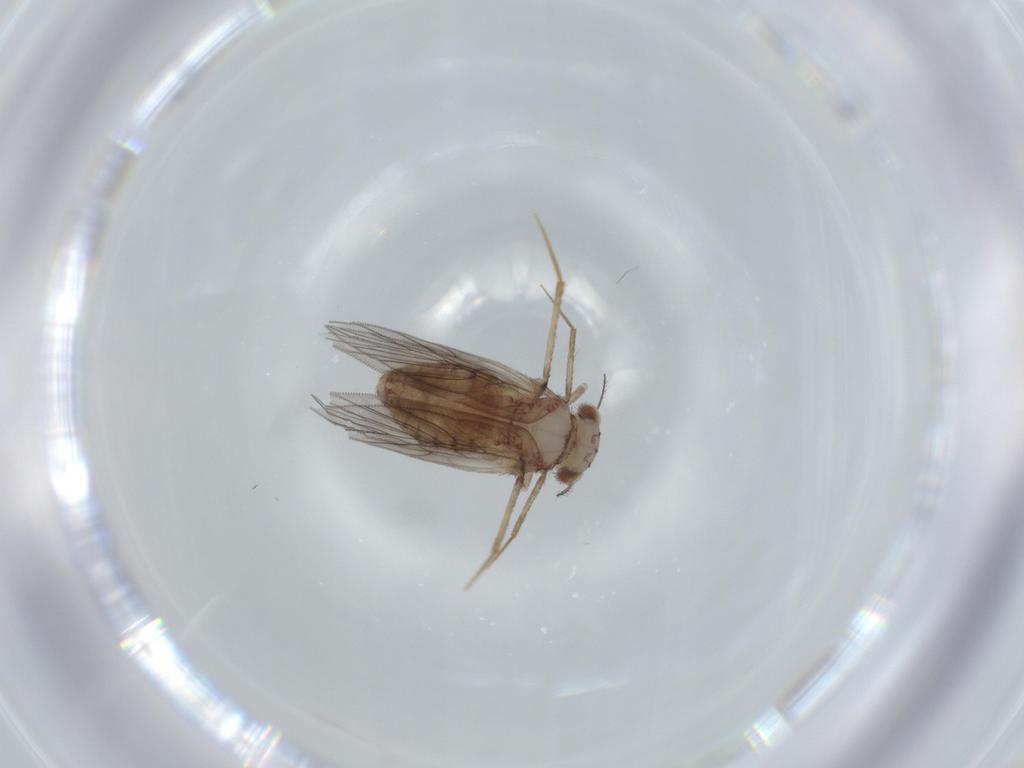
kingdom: Animalia
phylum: Arthropoda
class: Insecta
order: Psocodea
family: Lepidopsocidae
